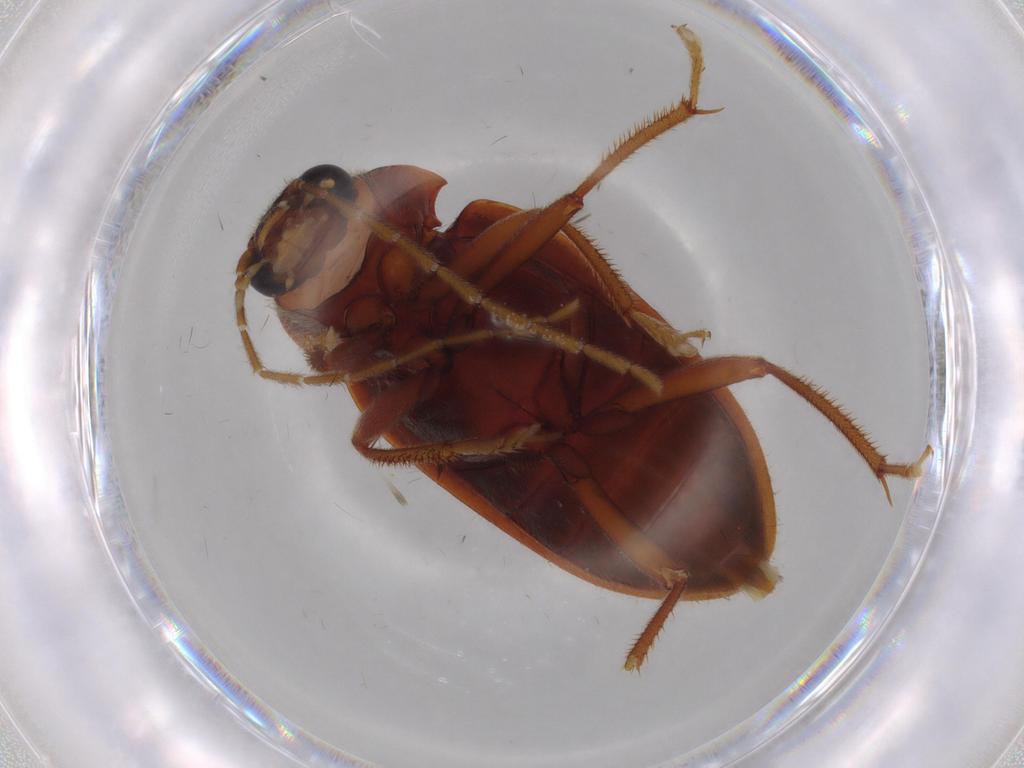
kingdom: Animalia
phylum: Arthropoda
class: Insecta
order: Coleoptera
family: Ptilodactylidae
